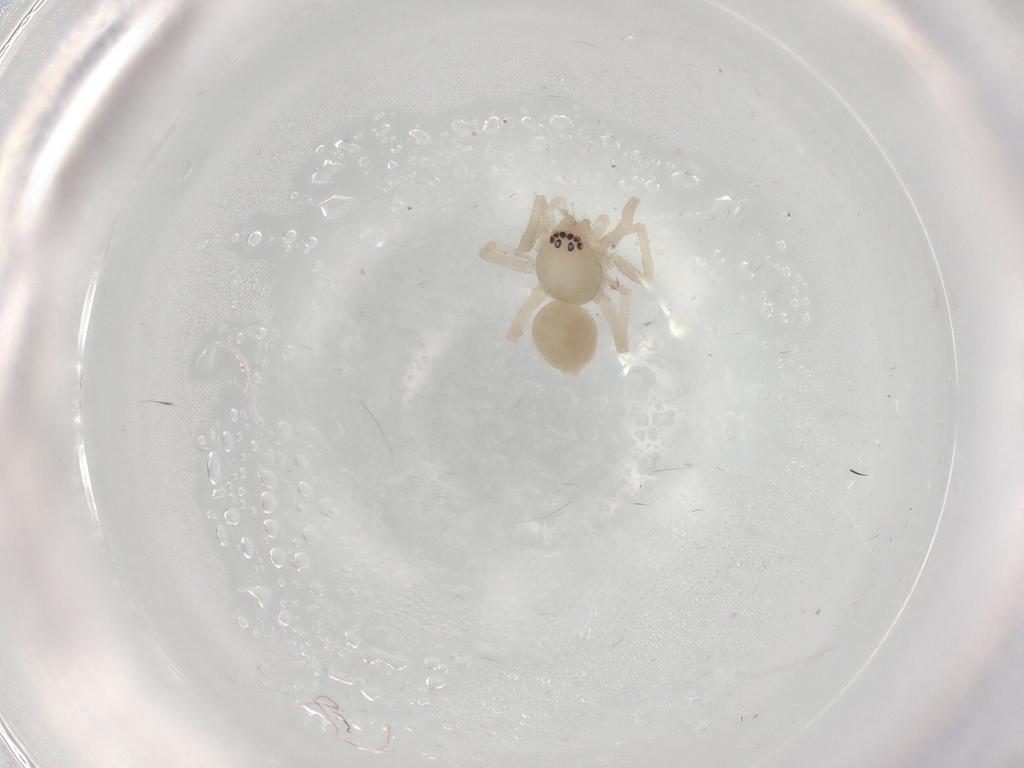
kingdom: Animalia
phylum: Arthropoda
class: Arachnida
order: Araneae
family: Clubionidae
